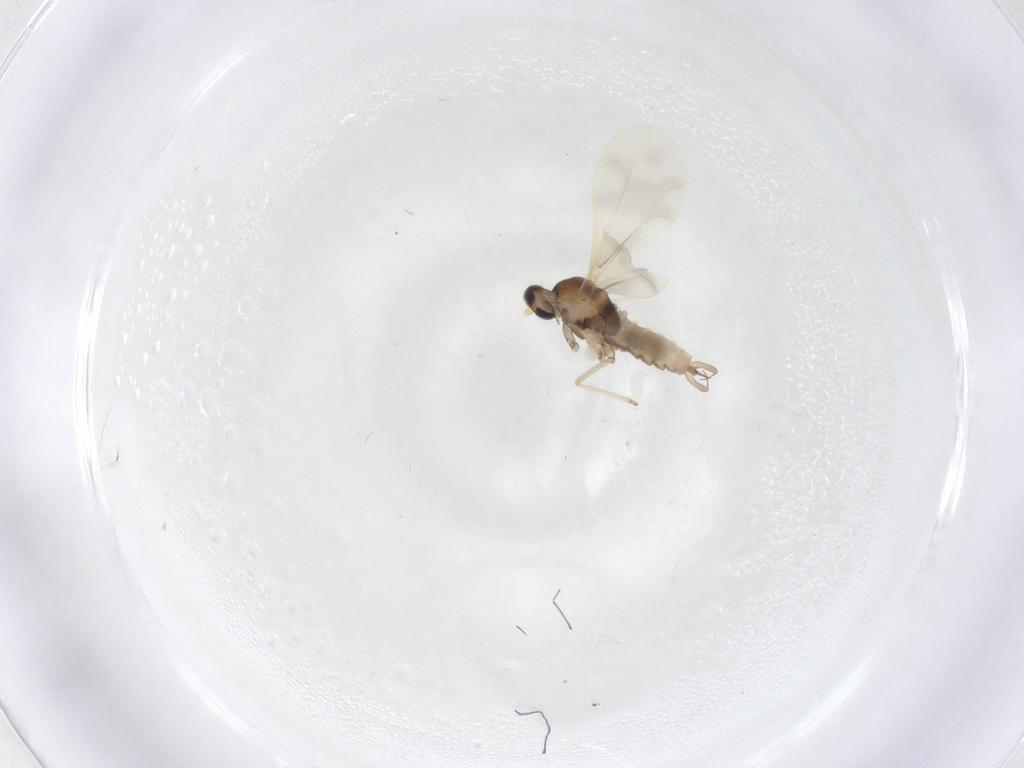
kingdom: Animalia
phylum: Arthropoda
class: Insecta
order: Diptera
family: Cecidomyiidae
